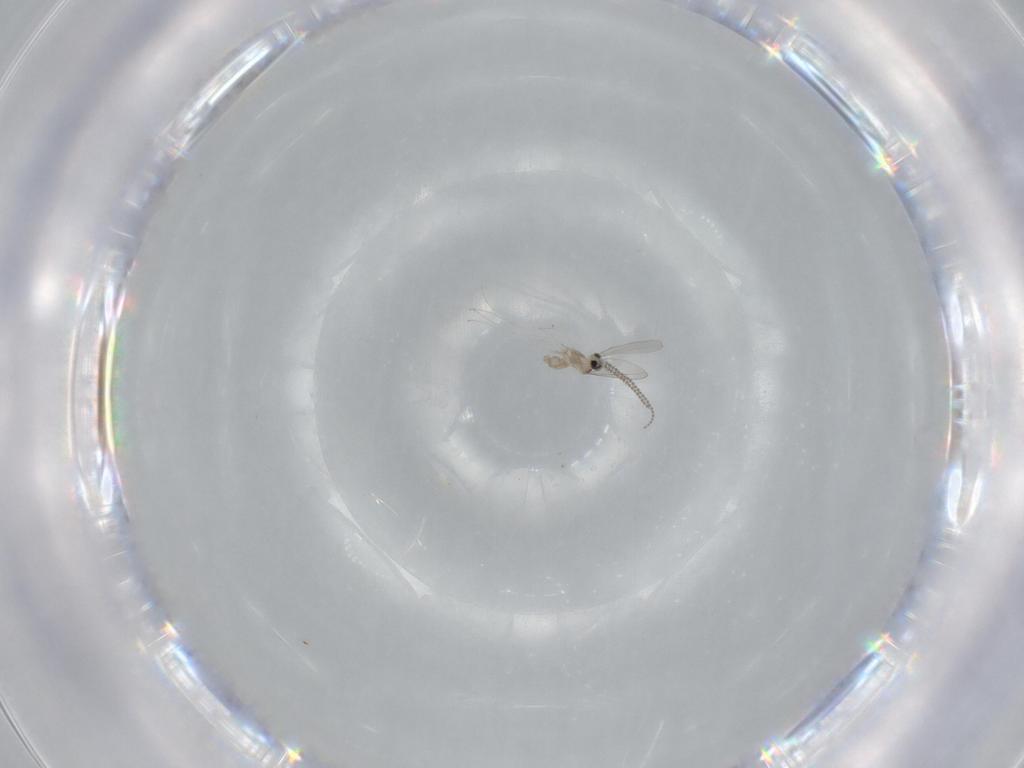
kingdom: Animalia
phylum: Arthropoda
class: Insecta
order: Diptera
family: Cecidomyiidae
